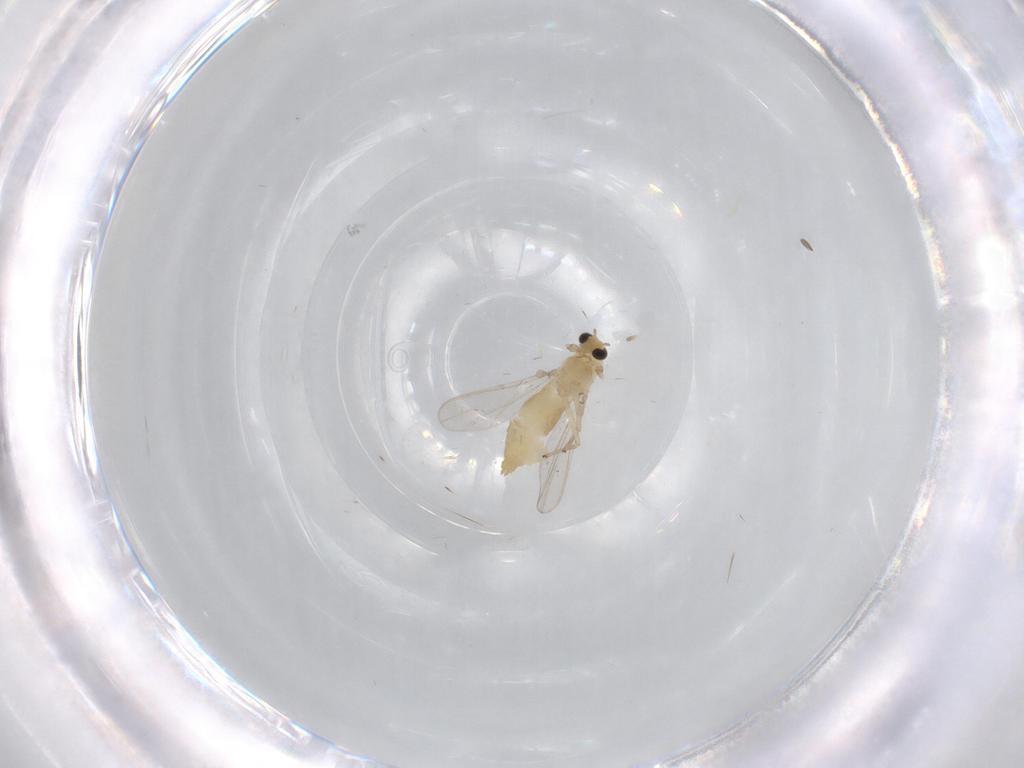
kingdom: Animalia
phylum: Arthropoda
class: Insecta
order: Diptera
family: Chironomidae
